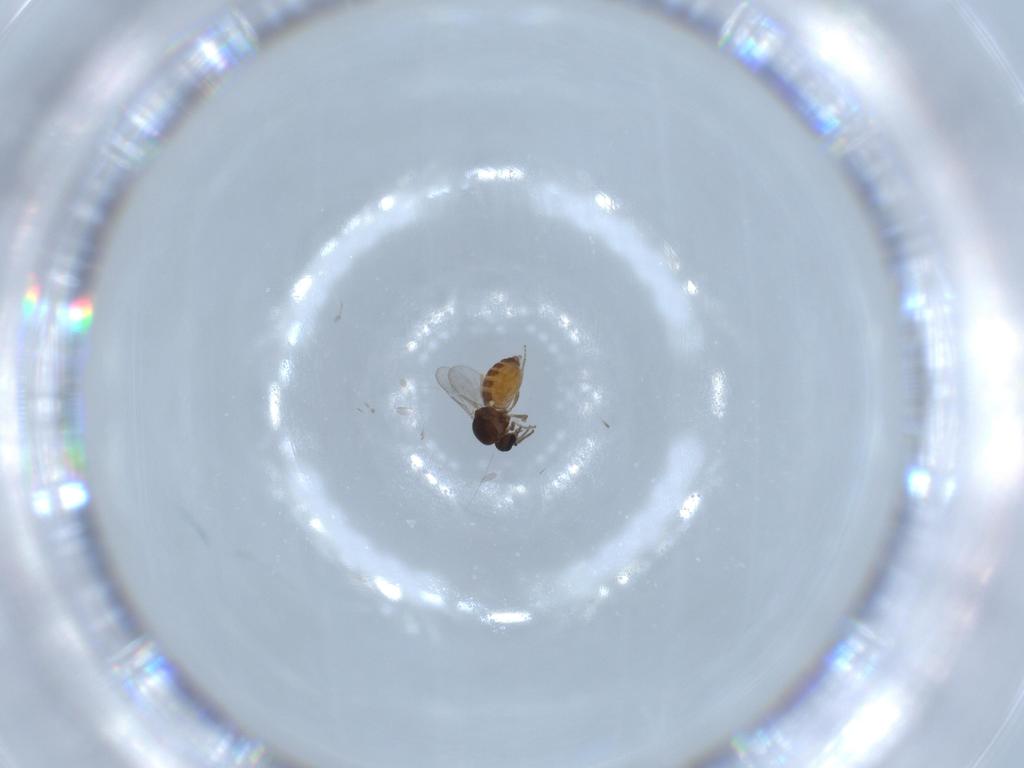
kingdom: Animalia
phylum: Arthropoda
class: Insecta
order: Diptera
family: Ceratopogonidae
